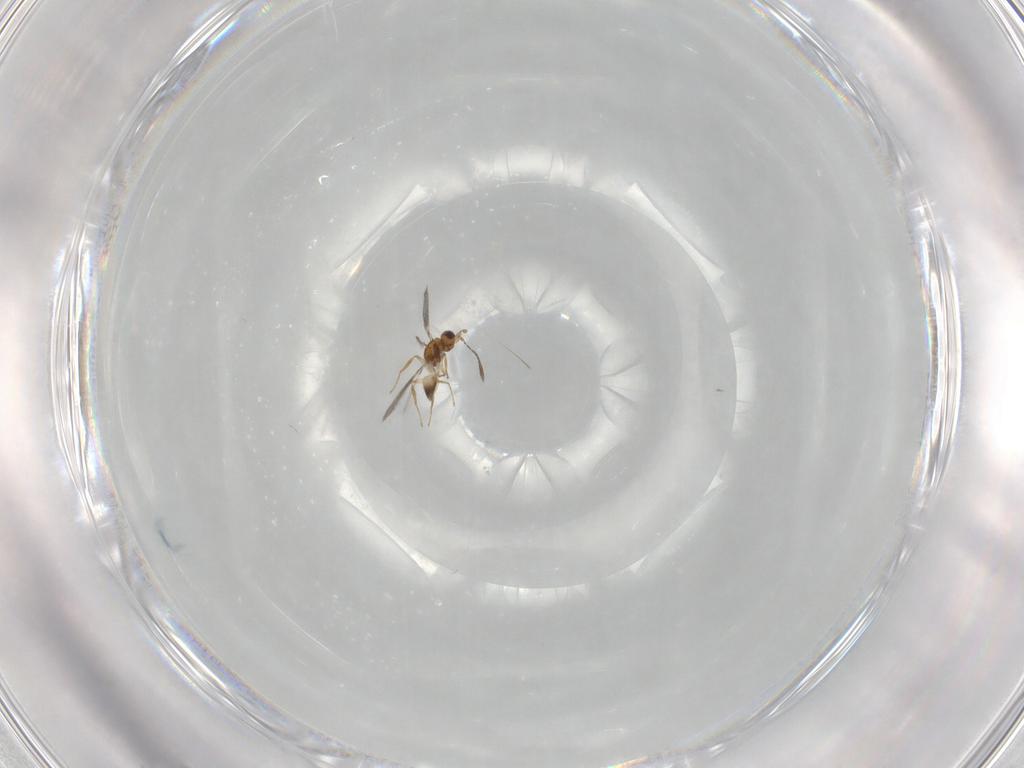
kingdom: Animalia
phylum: Arthropoda
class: Insecta
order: Hymenoptera
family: Mymaridae
